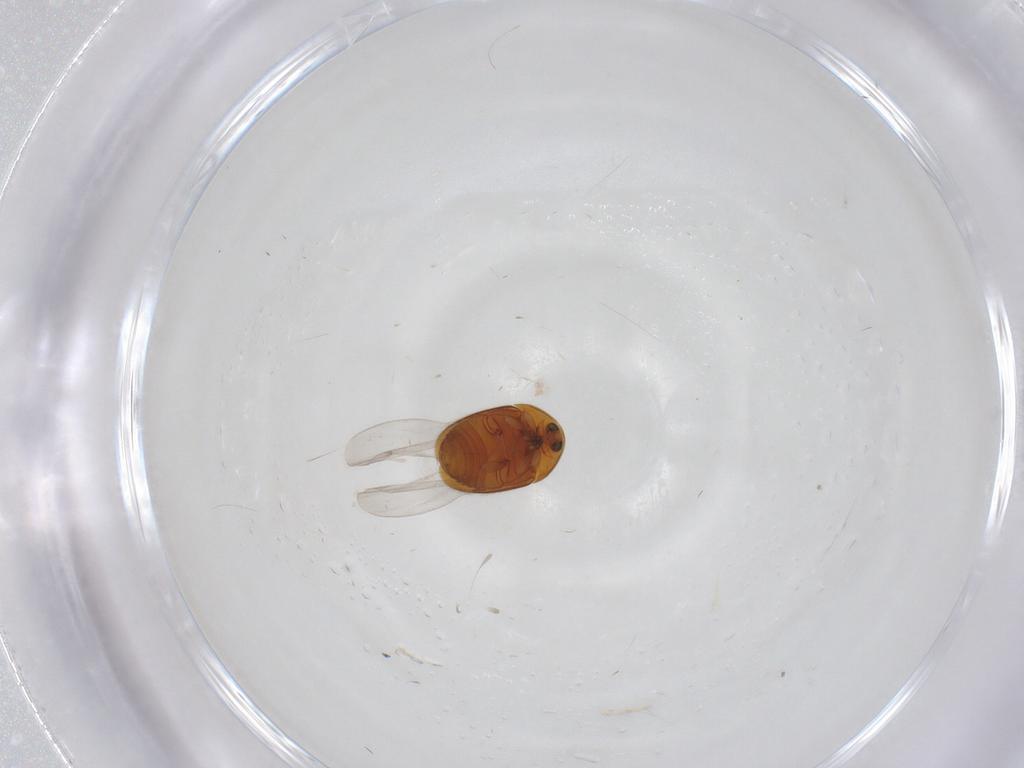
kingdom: Animalia
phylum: Arthropoda
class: Insecta
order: Coleoptera
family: Corylophidae
